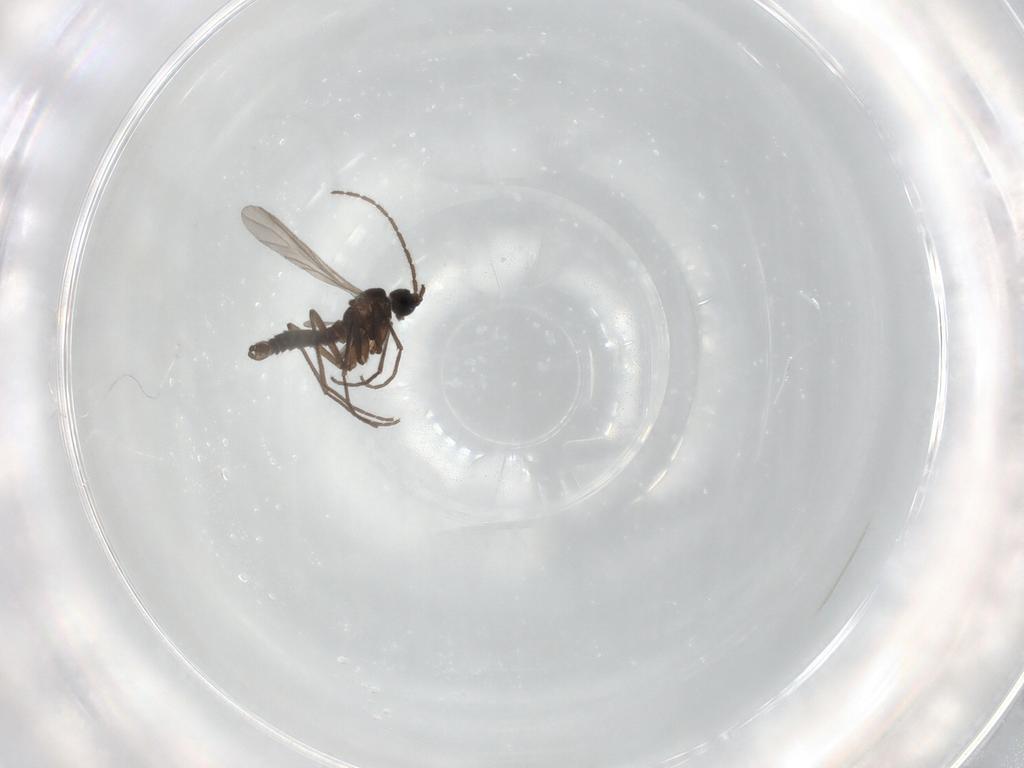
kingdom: Animalia
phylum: Arthropoda
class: Insecta
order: Diptera
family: Sciaridae
